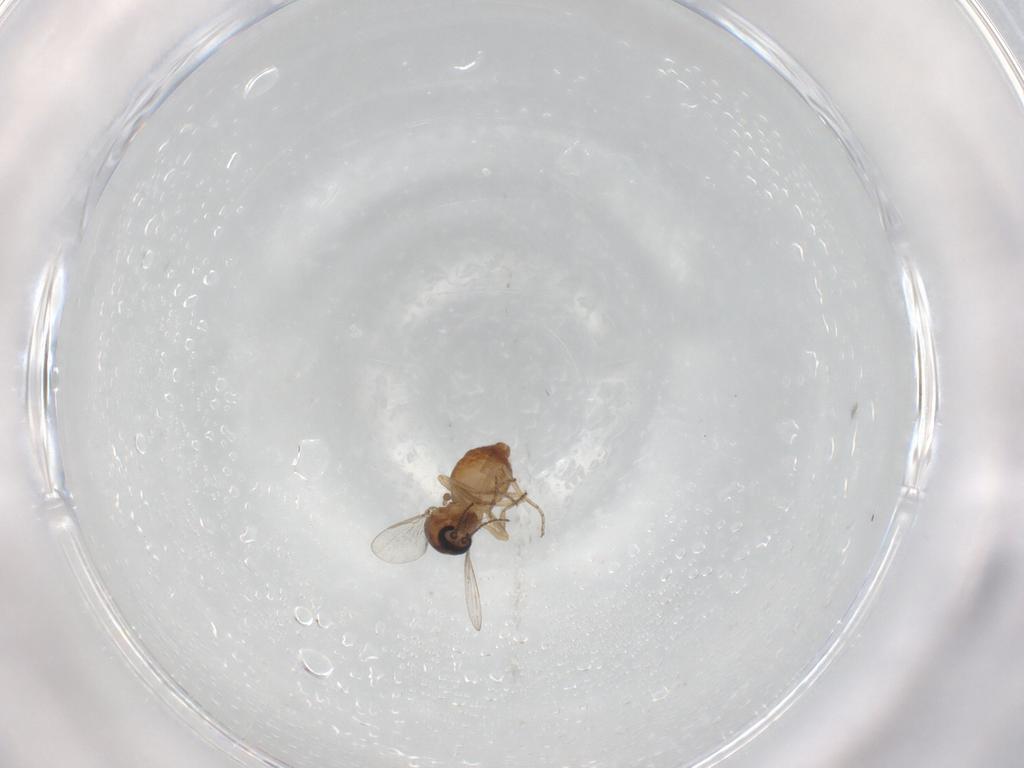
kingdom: Animalia
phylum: Arthropoda
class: Insecta
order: Diptera
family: Ceratopogonidae
